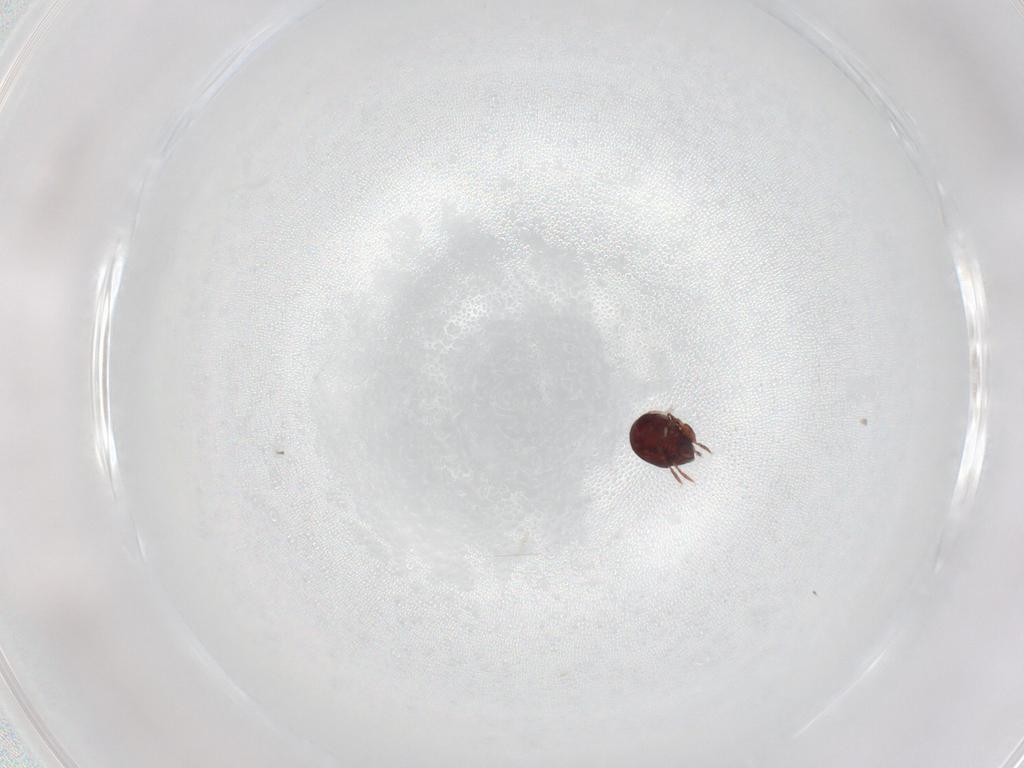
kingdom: Animalia
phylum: Arthropoda
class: Arachnida
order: Sarcoptiformes
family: Humerobatidae
